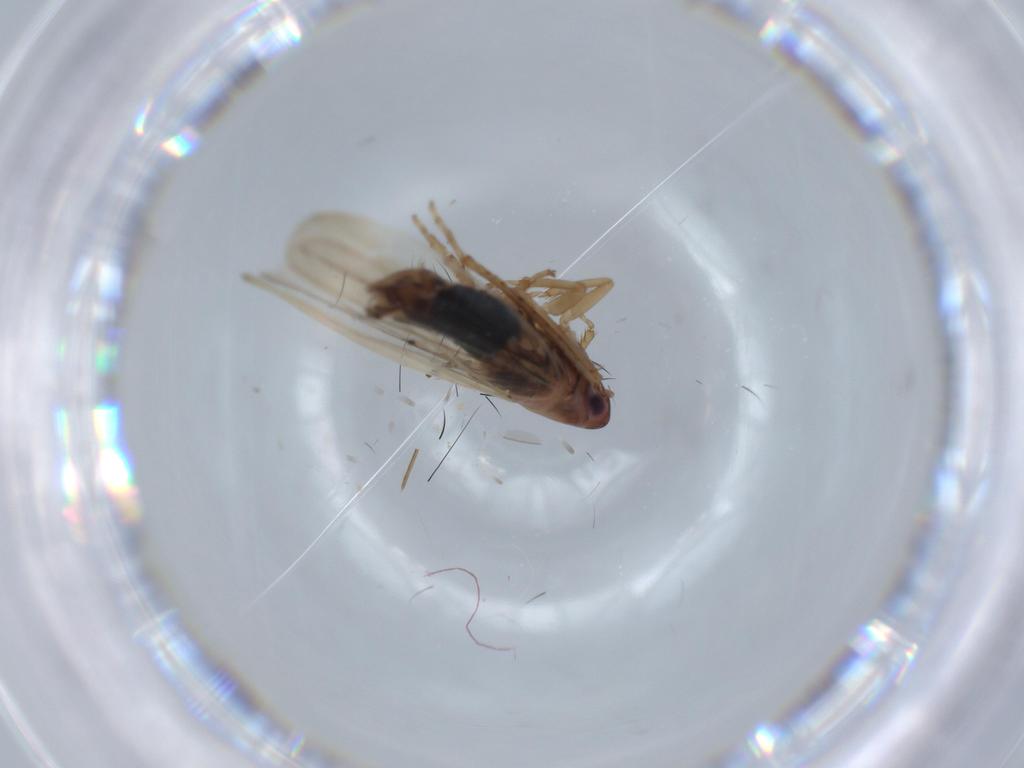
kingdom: Animalia
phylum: Arthropoda
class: Insecta
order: Hemiptera
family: Cicadellidae
